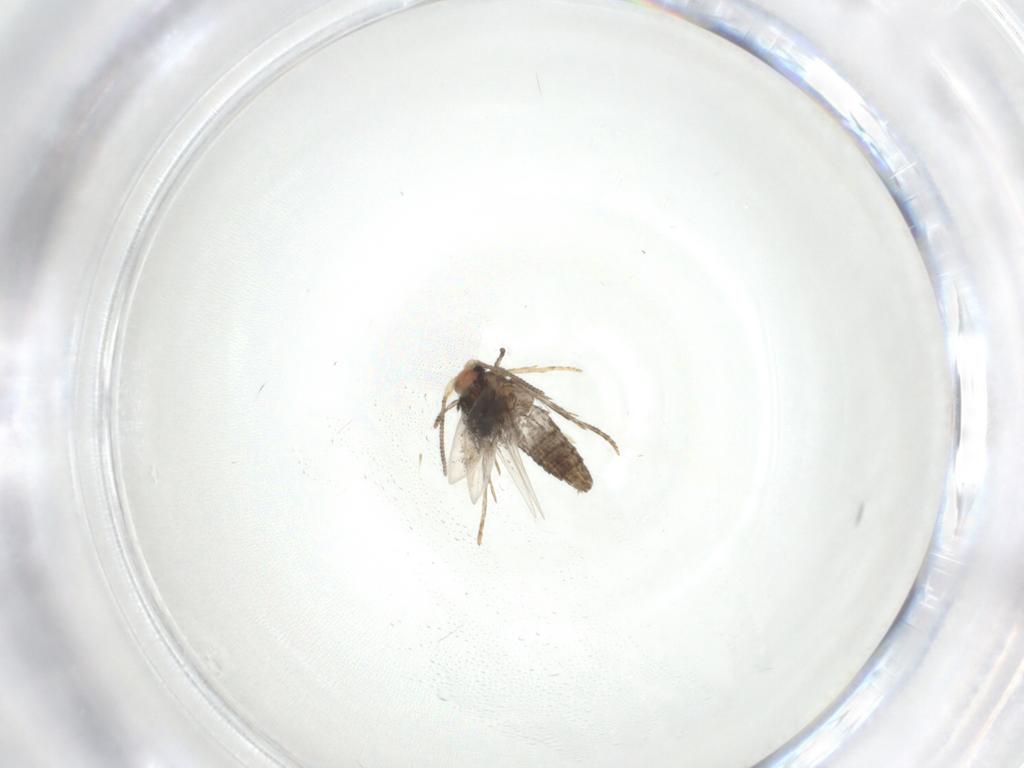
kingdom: Animalia
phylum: Arthropoda
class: Insecta
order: Lepidoptera
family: Nepticulidae
